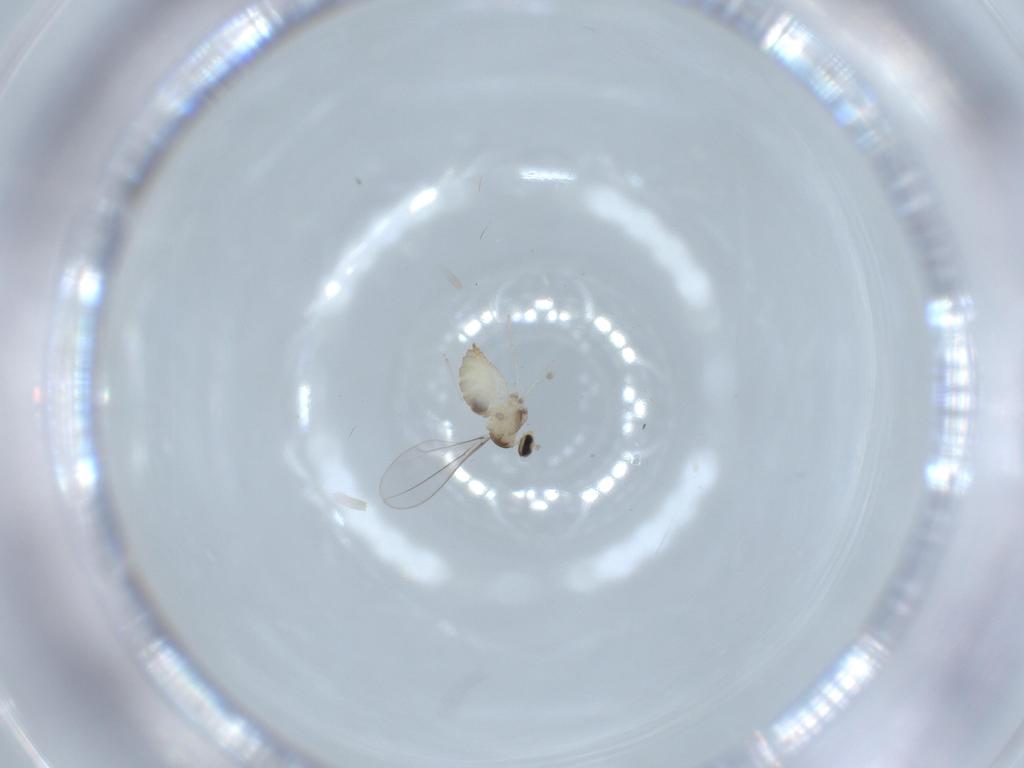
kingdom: Animalia
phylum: Arthropoda
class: Insecta
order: Diptera
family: Cecidomyiidae
